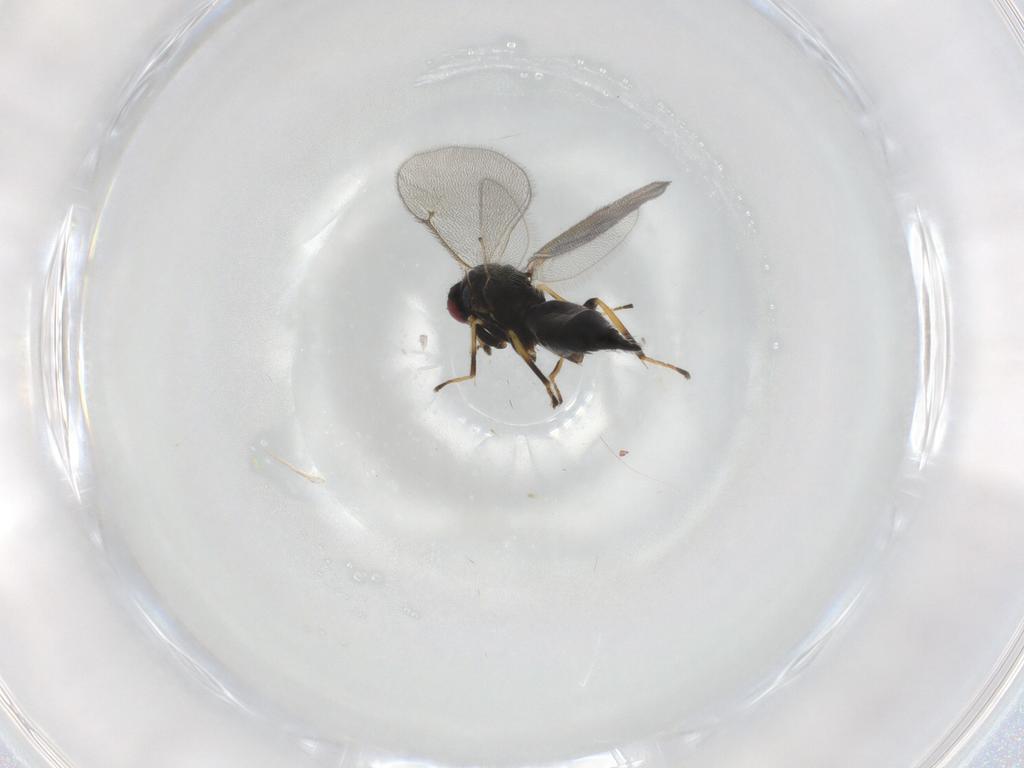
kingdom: Animalia
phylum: Arthropoda
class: Insecta
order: Hymenoptera
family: Eulophidae
